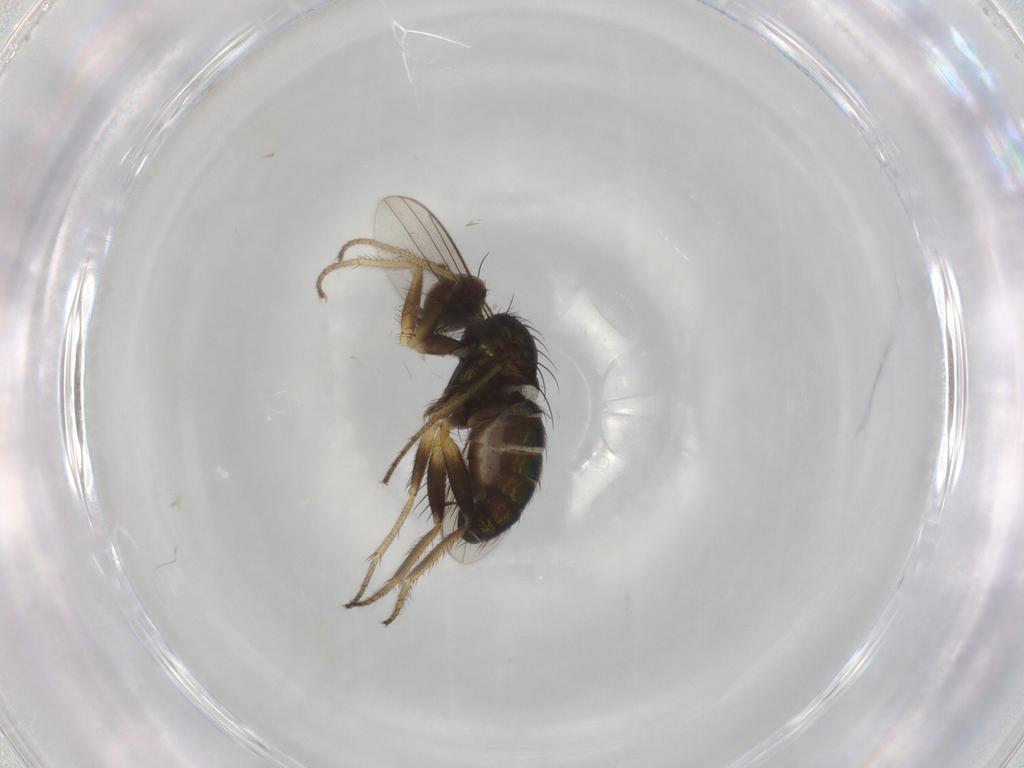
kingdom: Animalia
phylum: Arthropoda
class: Insecta
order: Diptera
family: Dolichopodidae
